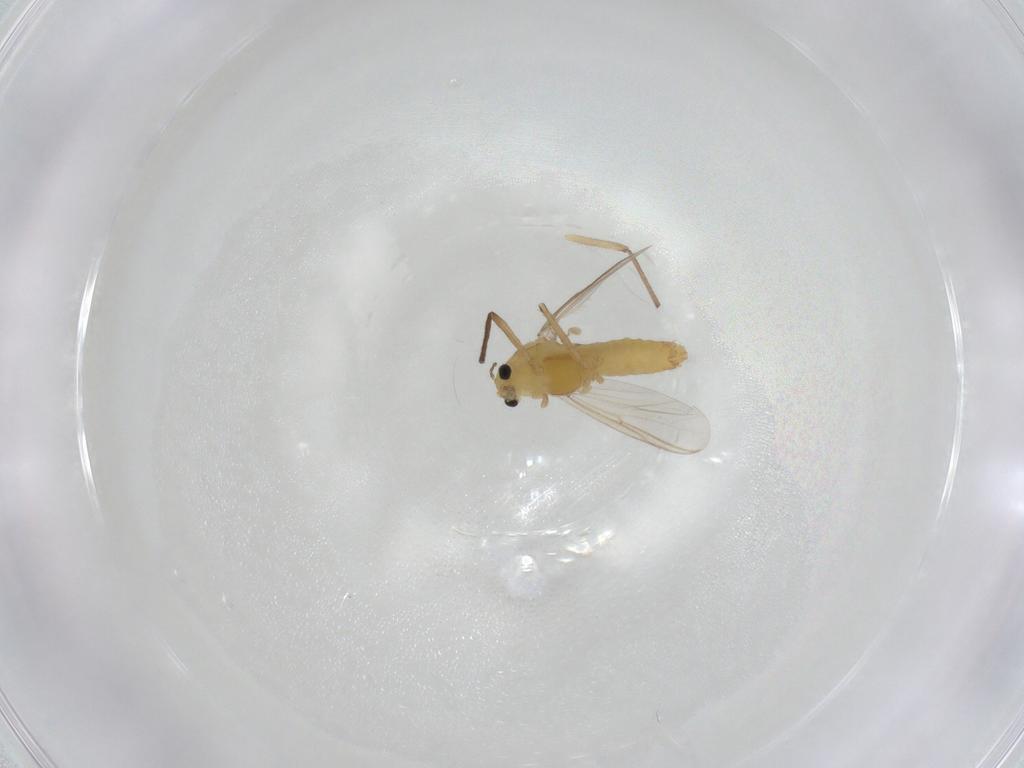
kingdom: Animalia
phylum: Arthropoda
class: Insecta
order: Diptera
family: Chironomidae
